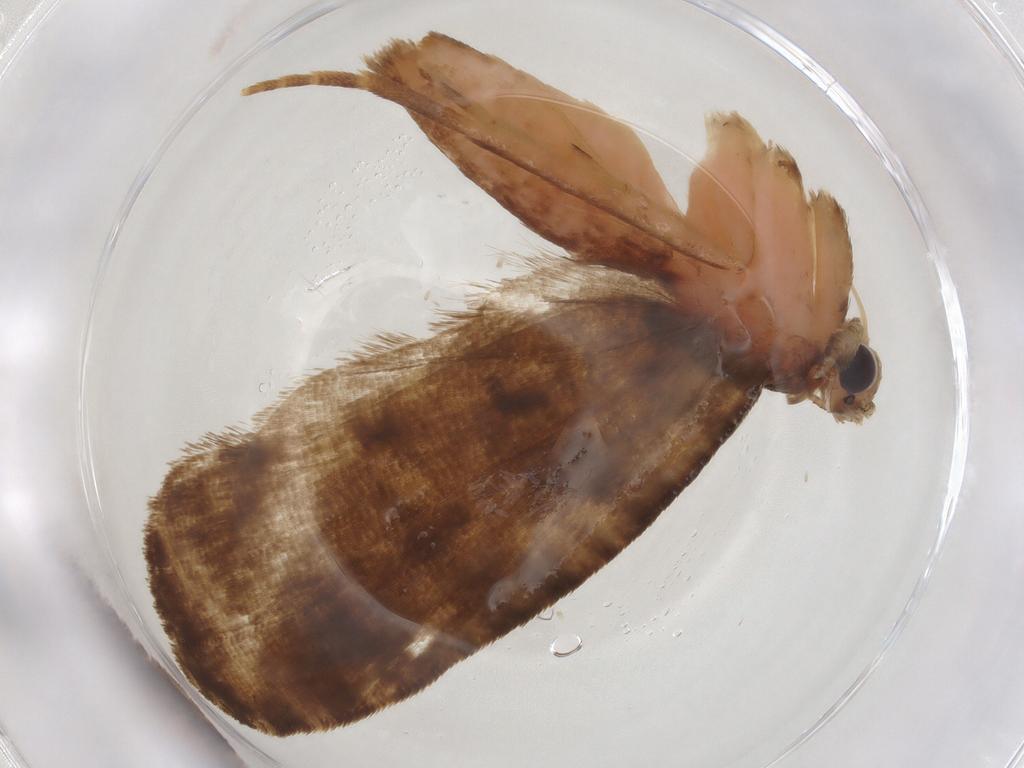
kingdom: Animalia
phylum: Arthropoda
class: Insecta
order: Lepidoptera
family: Tortricidae
